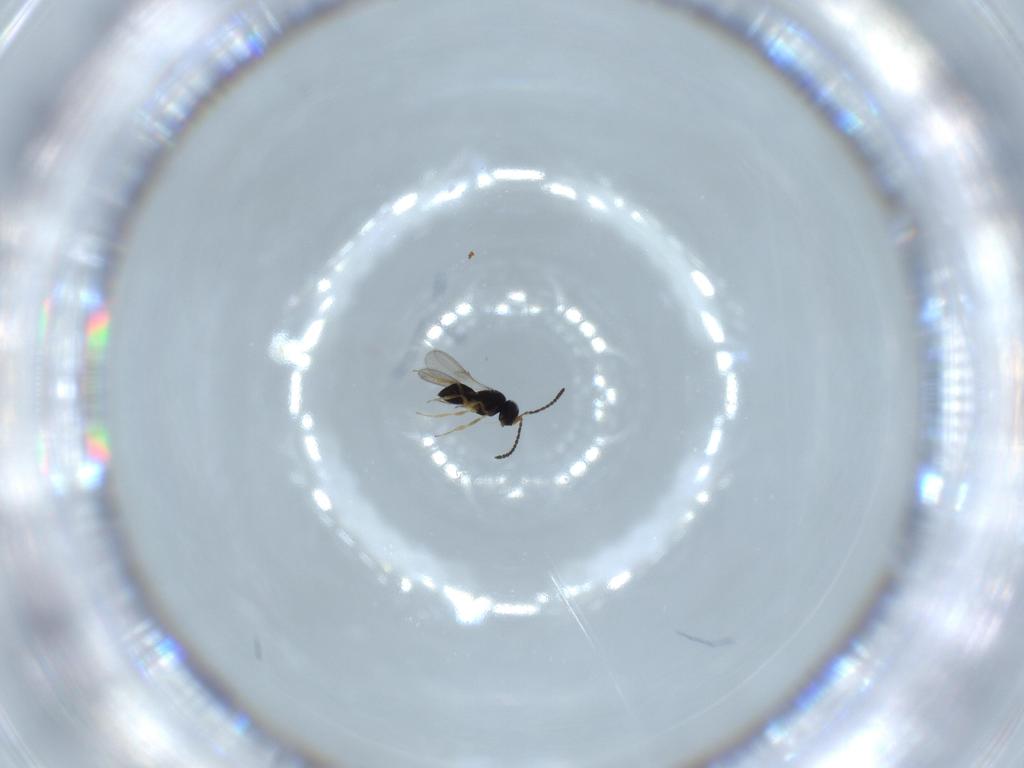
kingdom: Animalia
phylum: Arthropoda
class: Insecta
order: Hymenoptera
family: Scelionidae
